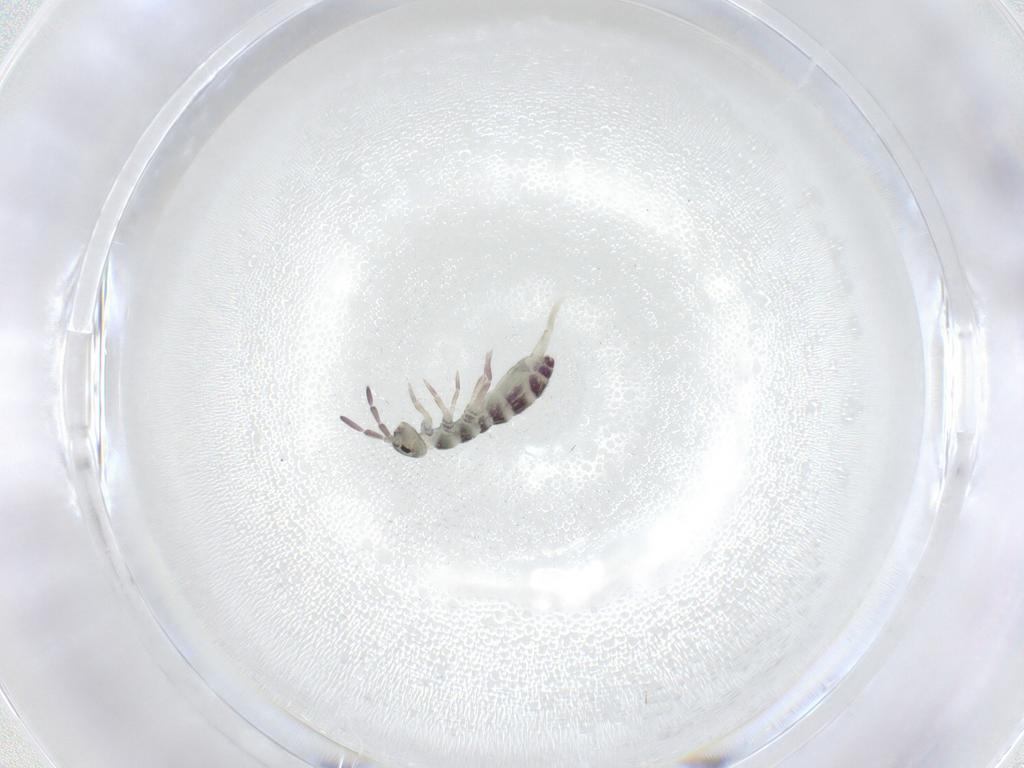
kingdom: Animalia
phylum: Arthropoda
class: Collembola
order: Entomobryomorpha
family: Isotomidae
